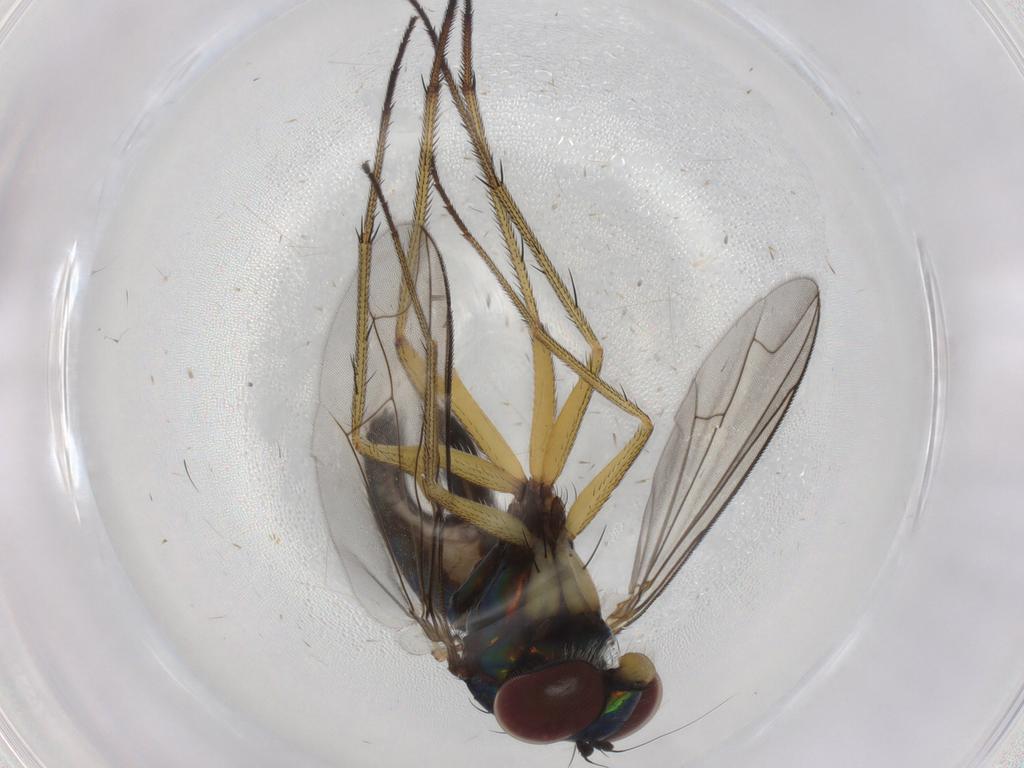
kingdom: Animalia
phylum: Arthropoda
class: Insecta
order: Diptera
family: Dolichopodidae
